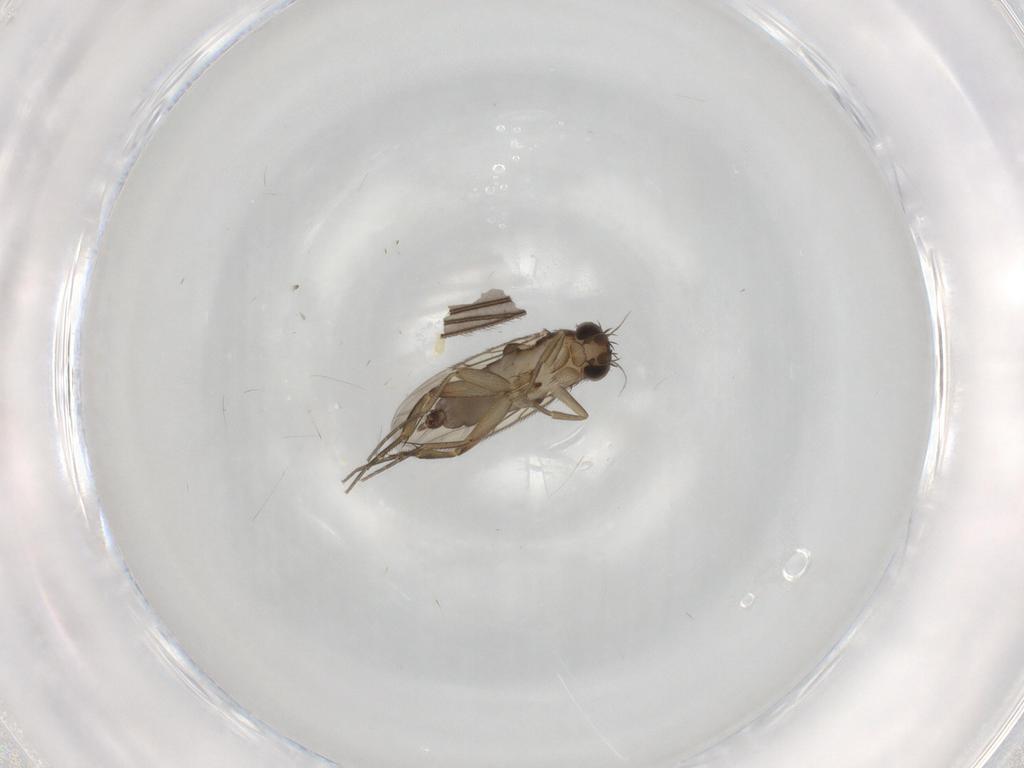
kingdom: Animalia
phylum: Arthropoda
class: Insecta
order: Diptera
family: Phoridae
